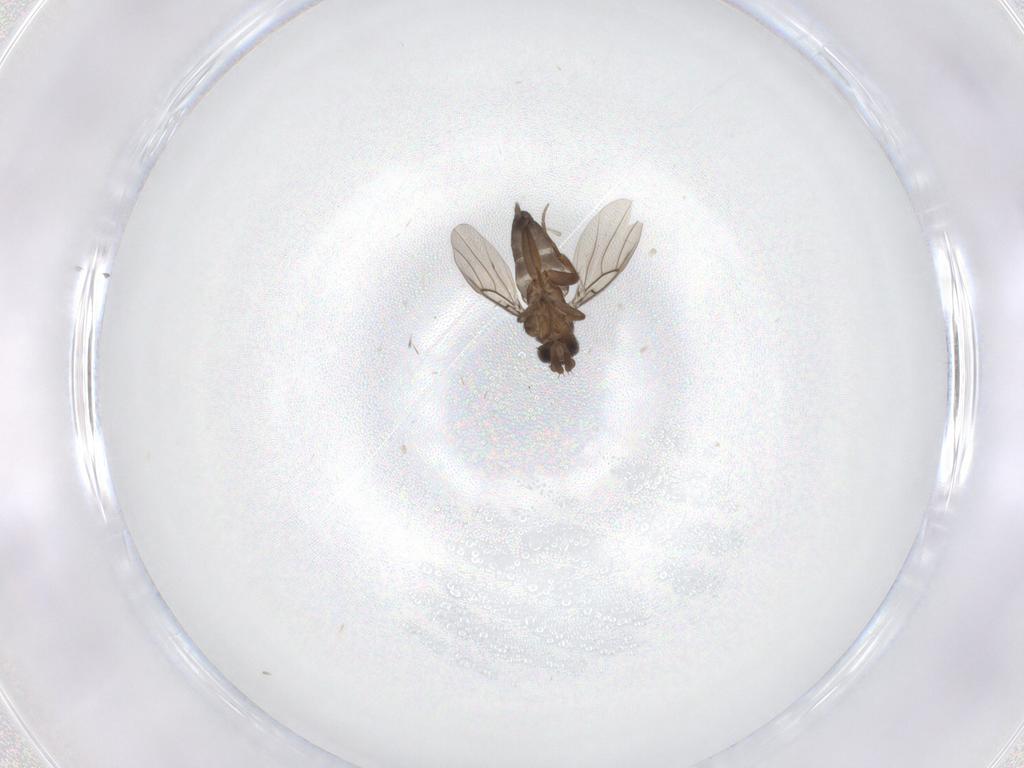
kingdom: Animalia
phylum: Arthropoda
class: Insecta
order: Diptera
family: Phoridae
